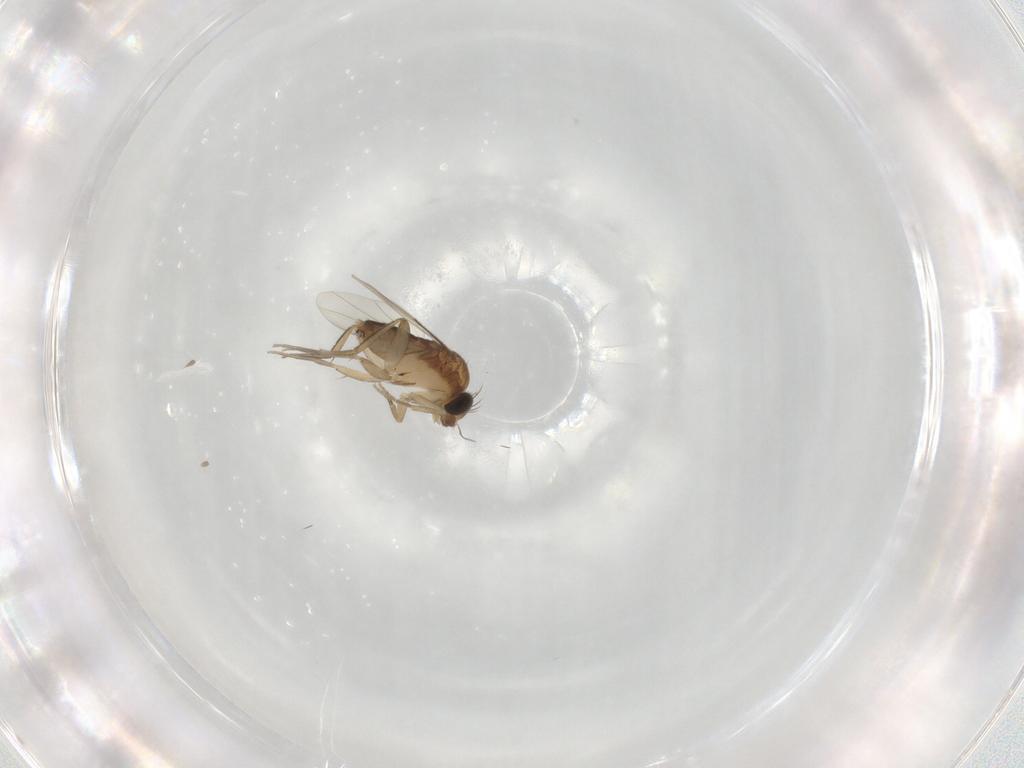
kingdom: Animalia
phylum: Arthropoda
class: Insecta
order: Diptera
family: Phoridae
